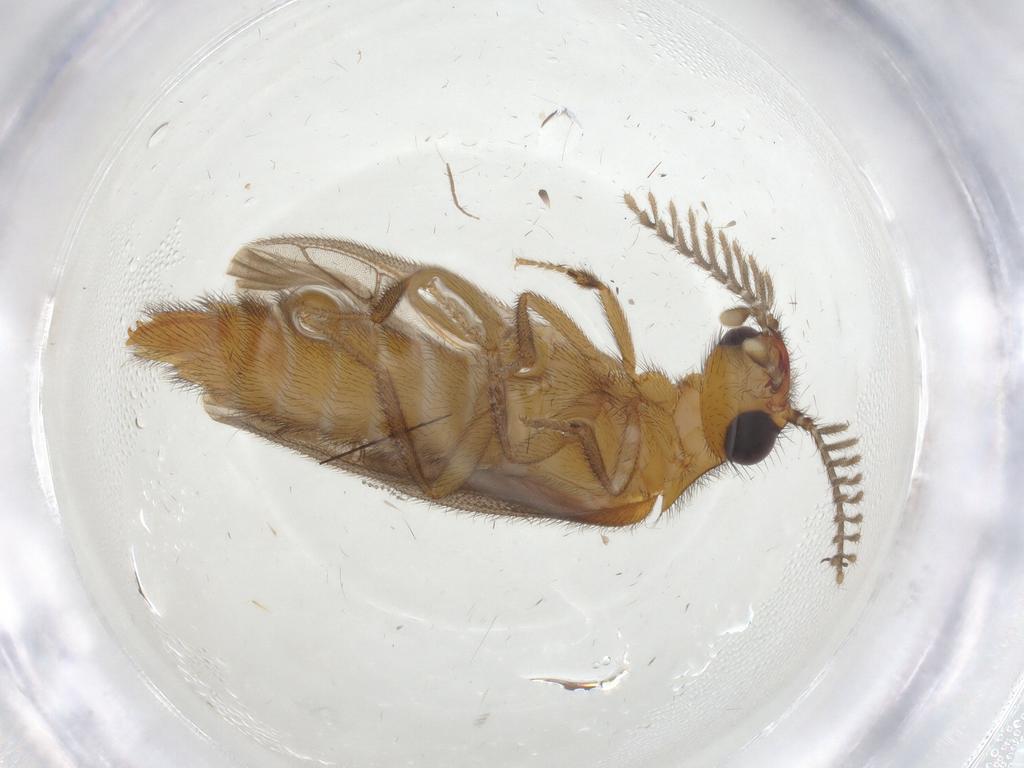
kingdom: Animalia
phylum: Arthropoda
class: Insecta
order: Coleoptera
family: Phengodidae
